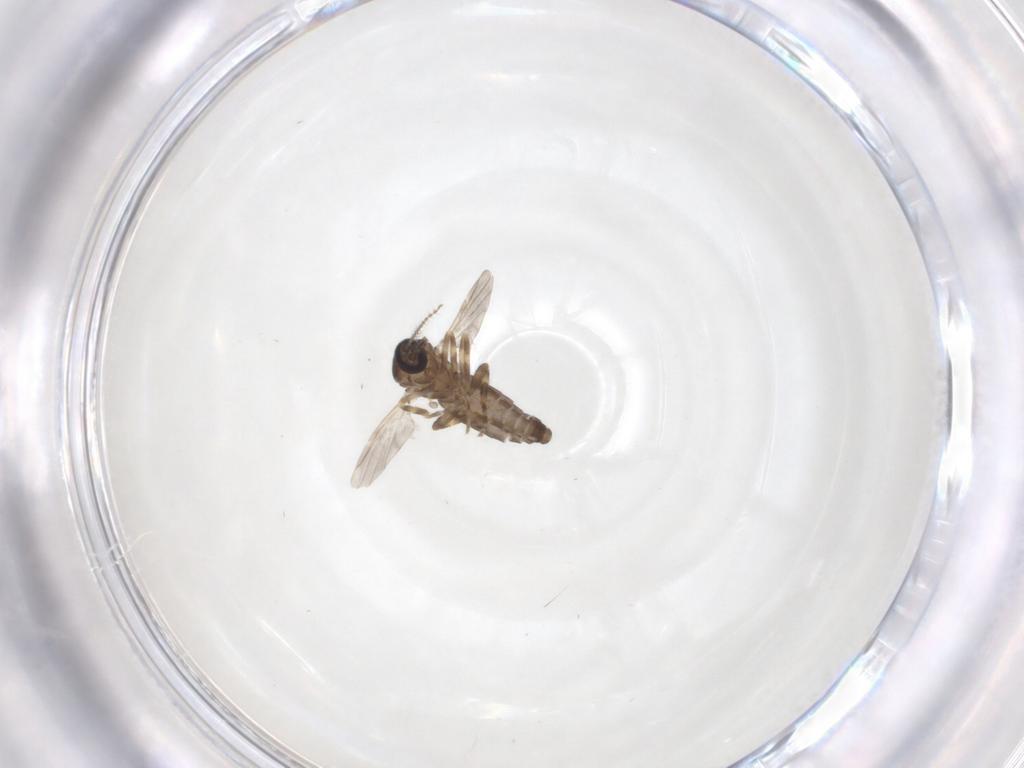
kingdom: Animalia
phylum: Arthropoda
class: Insecta
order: Diptera
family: Ceratopogonidae
